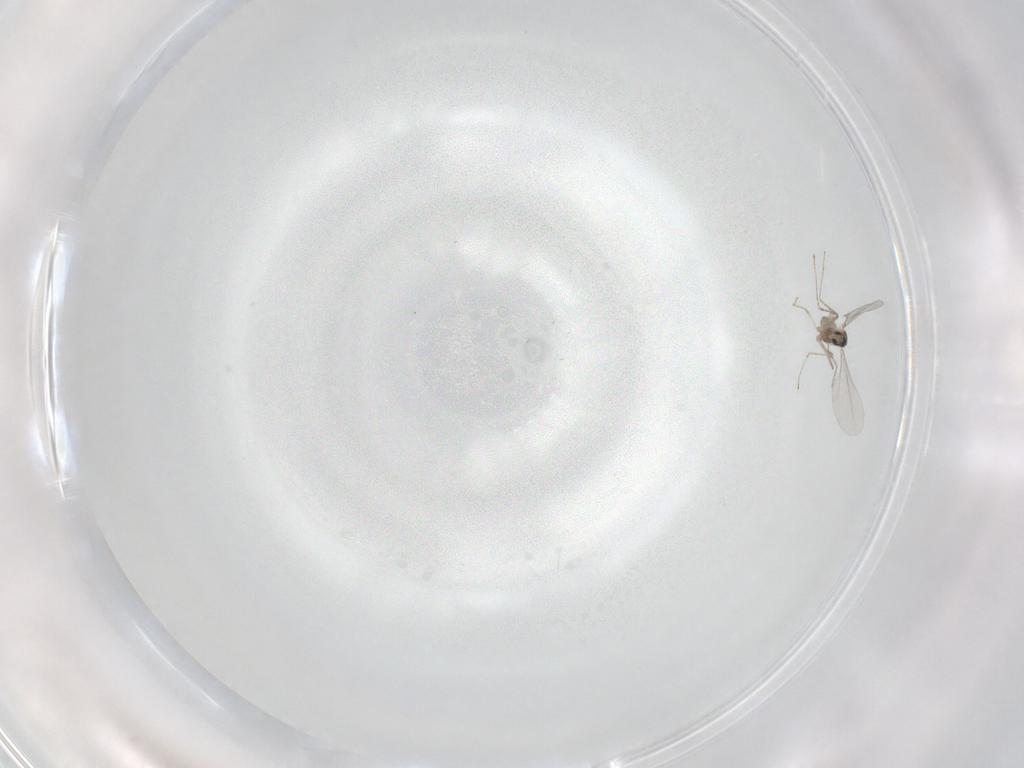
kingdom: Animalia
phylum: Arthropoda
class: Insecta
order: Diptera
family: Cecidomyiidae
